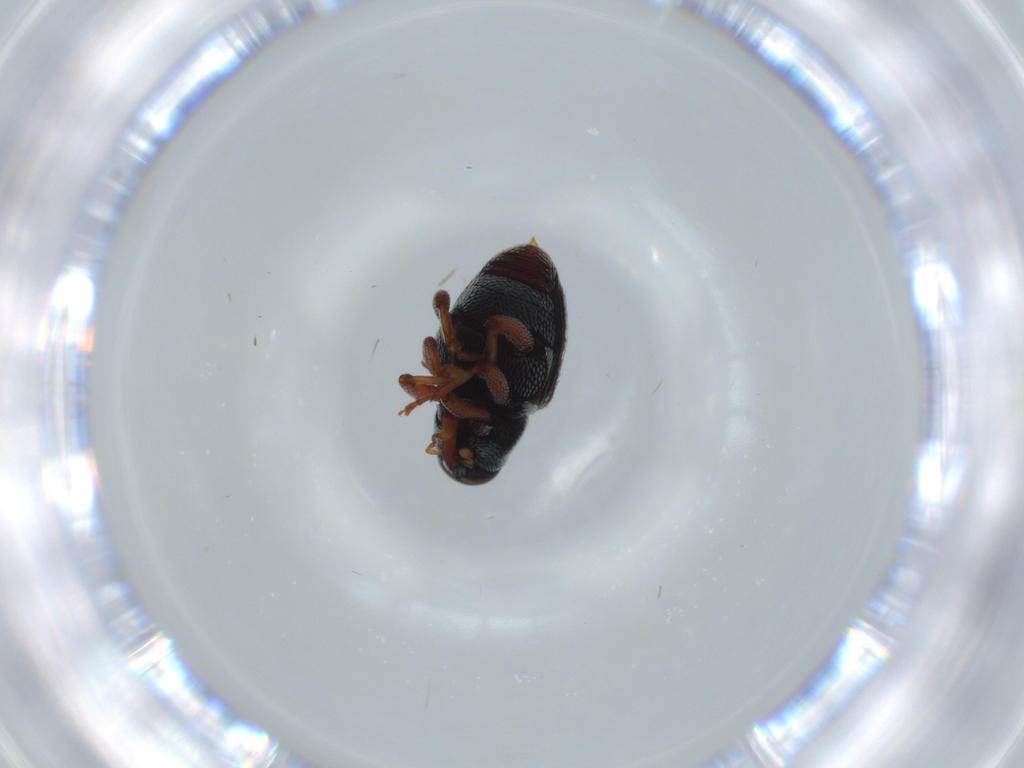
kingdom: Animalia
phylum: Arthropoda
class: Insecta
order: Coleoptera
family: Curculionidae
